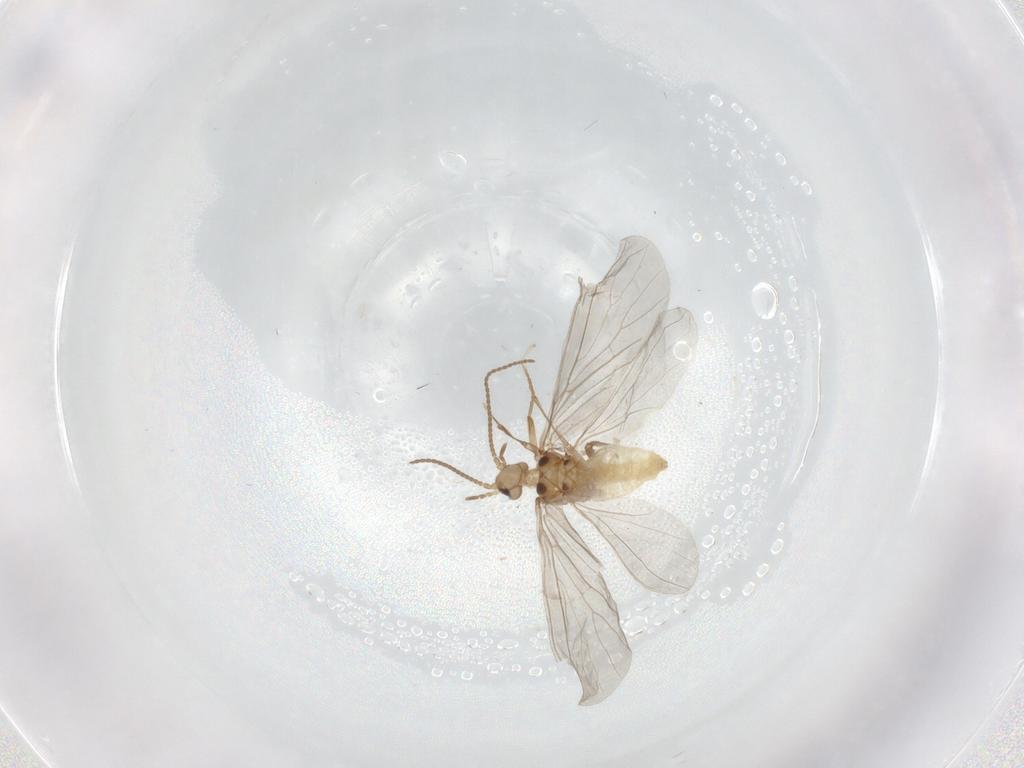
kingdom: Animalia
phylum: Arthropoda
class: Insecta
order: Neuroptera
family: Coniopterygidae
